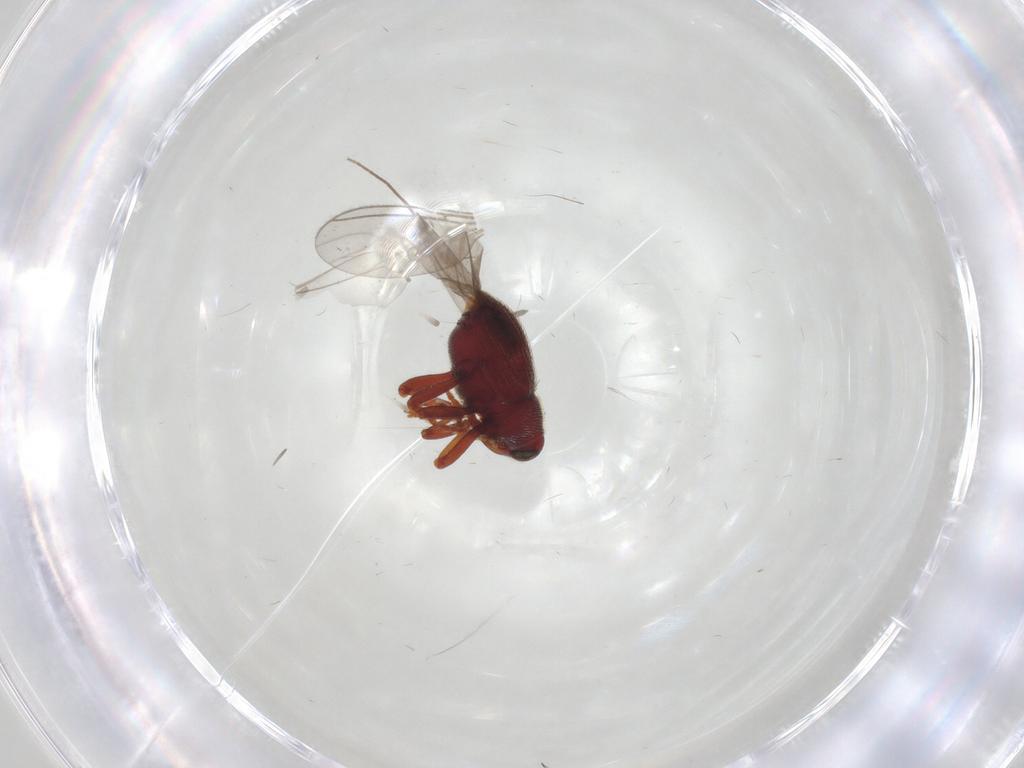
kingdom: Animalia
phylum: Arthropoda
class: Insecta
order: Coleoptera
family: Curculionidae
